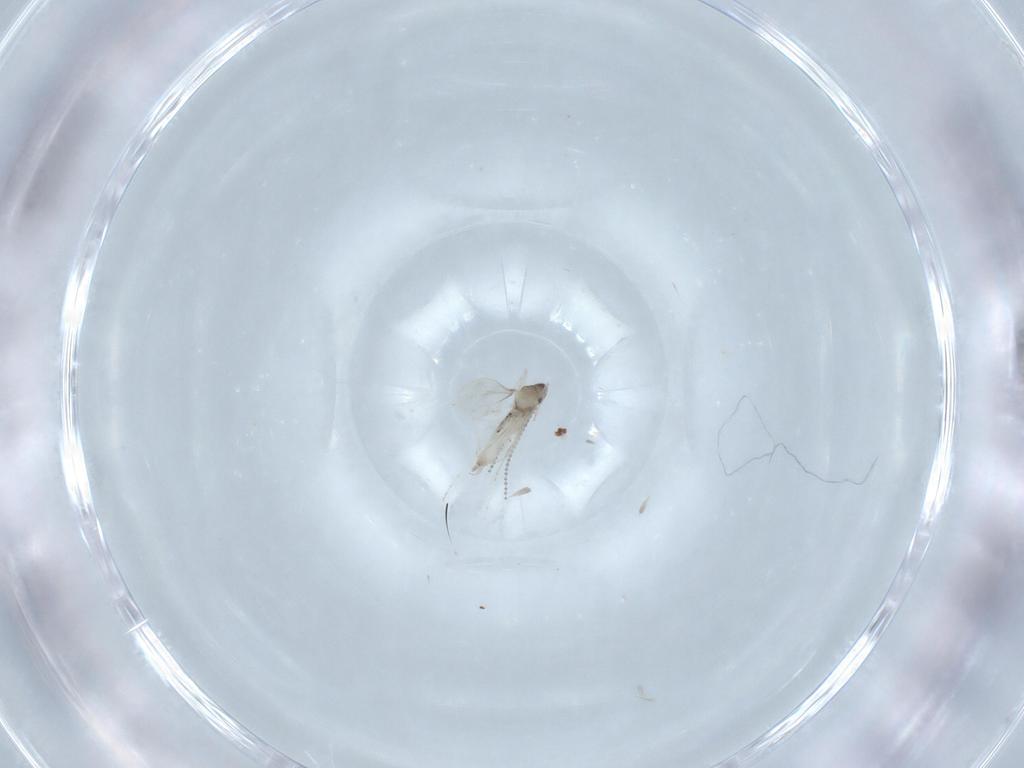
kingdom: Animalia
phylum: Arthropoda
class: Insecta
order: Diptera
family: Cecidomyiidae
